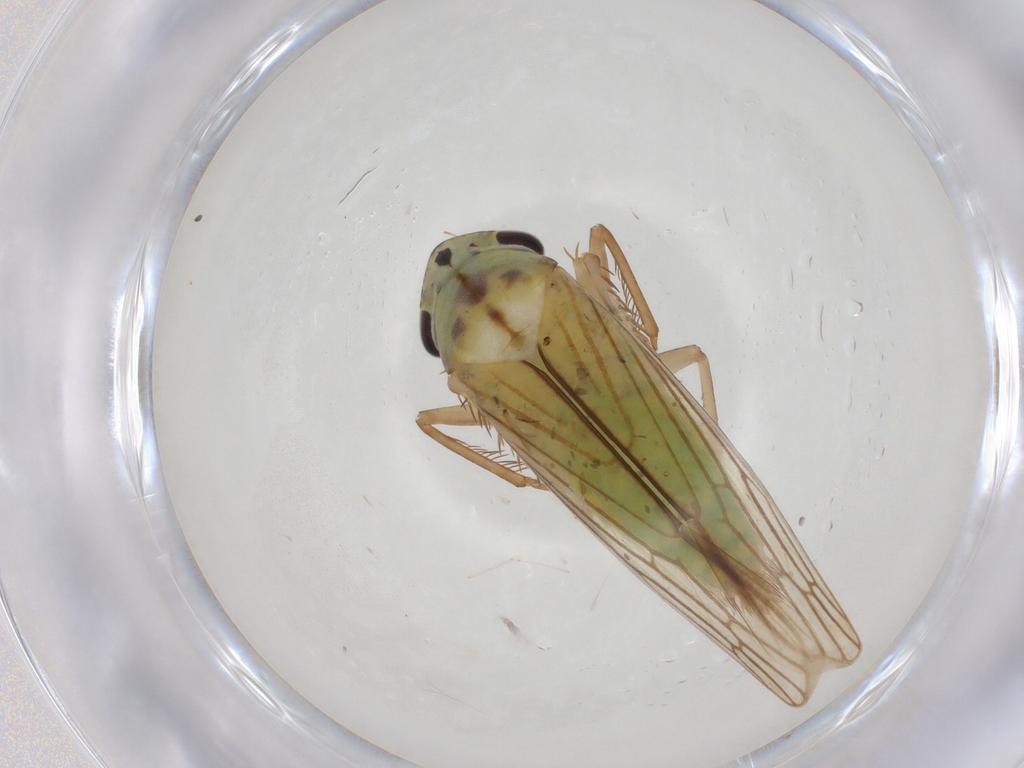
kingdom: Animalia
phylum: Arthropoda
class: Insecta
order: Hemiptera
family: Cicadellidae
